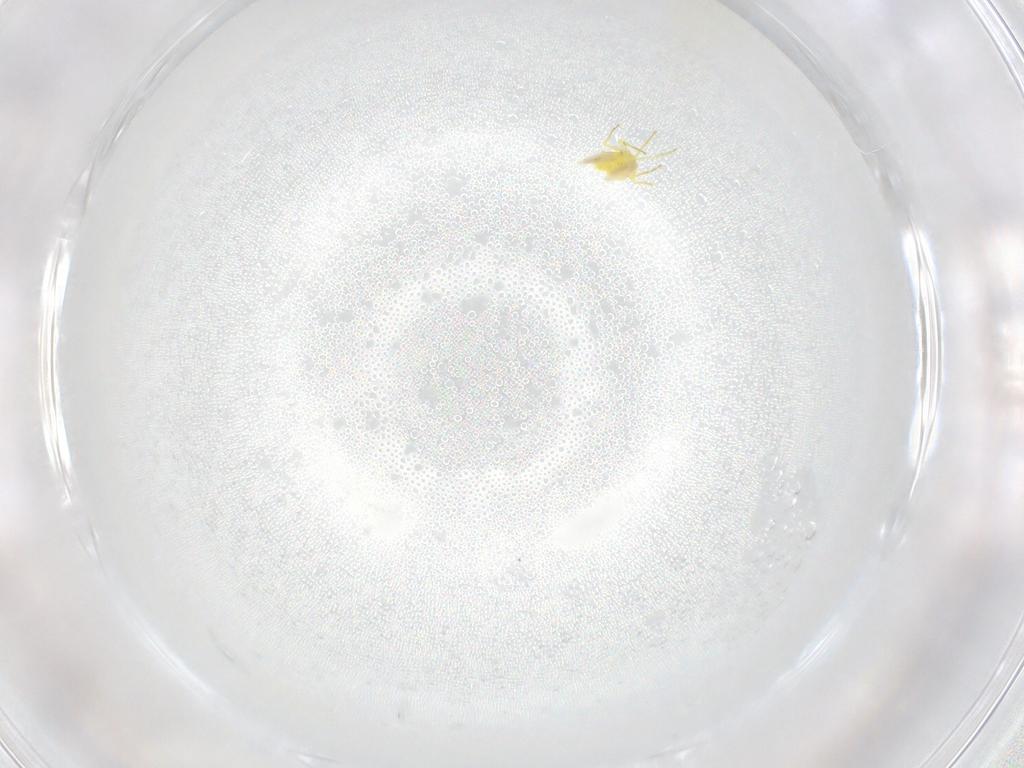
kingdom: Animalia
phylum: Arthropoda
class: Insecta
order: Hemiptera
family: Aleyrodidae
